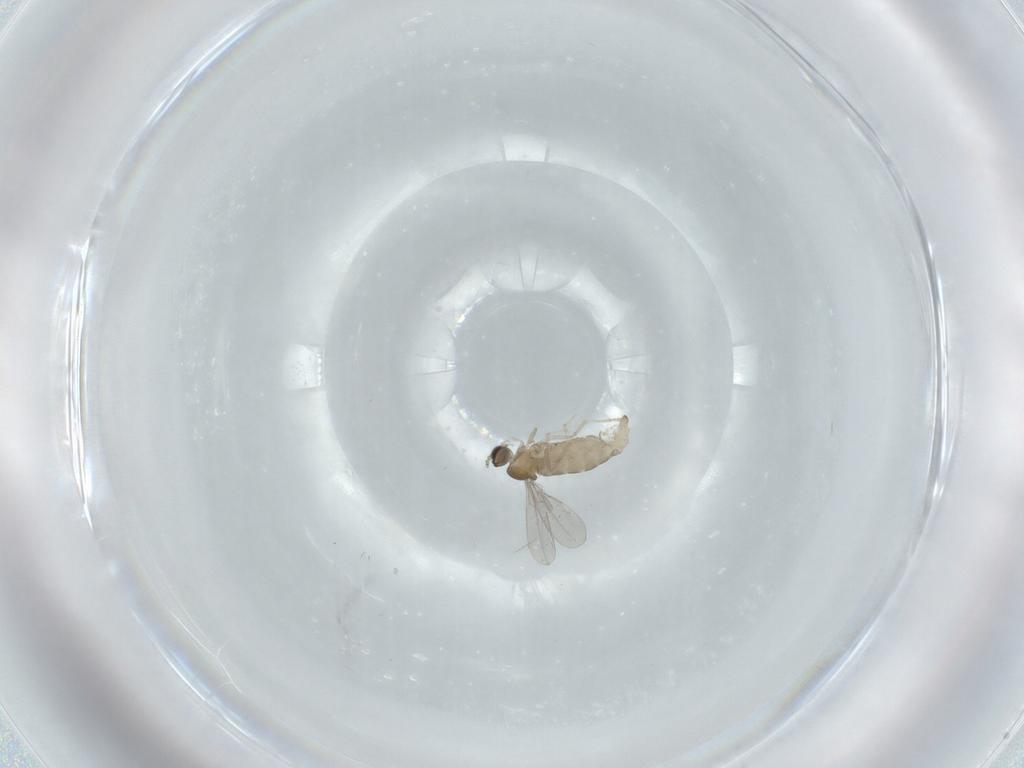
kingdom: Animalia
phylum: Arthropoda
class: Insecta
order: Diptera
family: Cecidomyiidae
